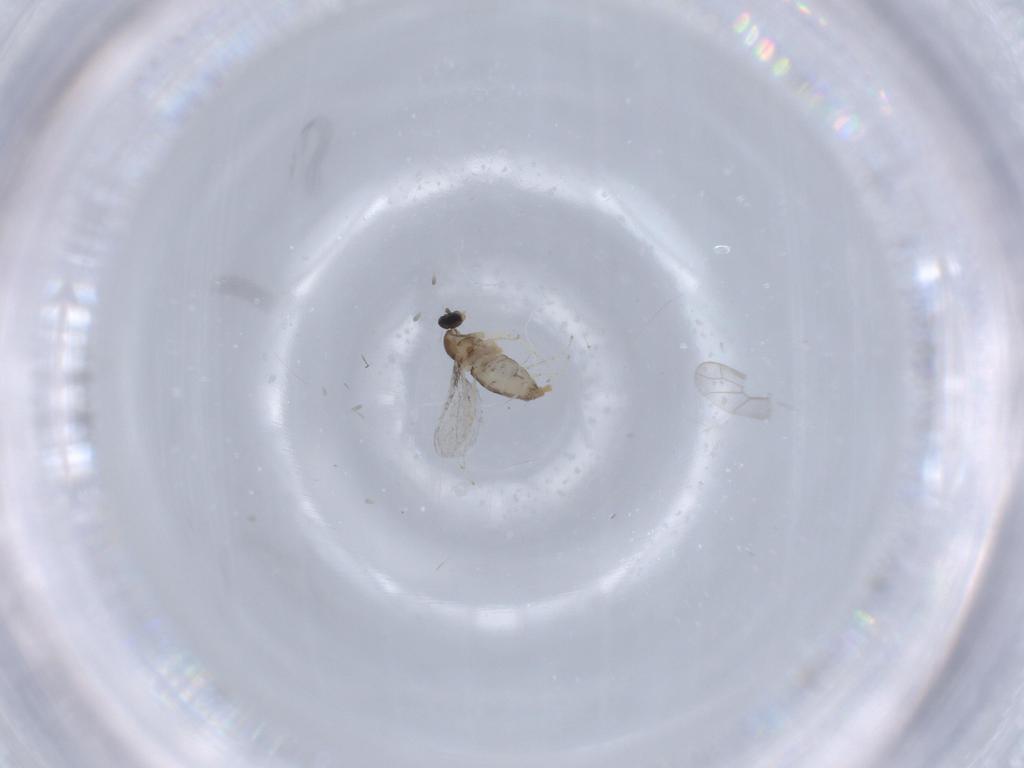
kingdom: Animalia
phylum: Arthropoda
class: Insecta
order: Diptera
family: Cecidomyiidae
